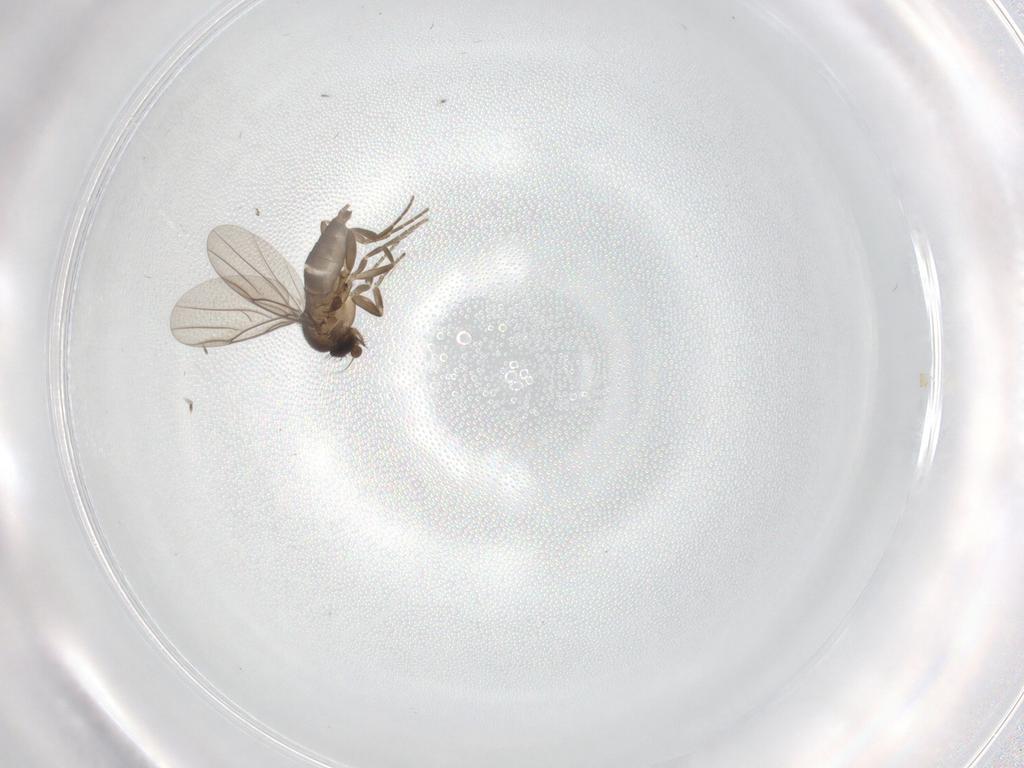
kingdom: Animalia
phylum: Arthropoda
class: Insecta
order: Diptera
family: Phoridae
